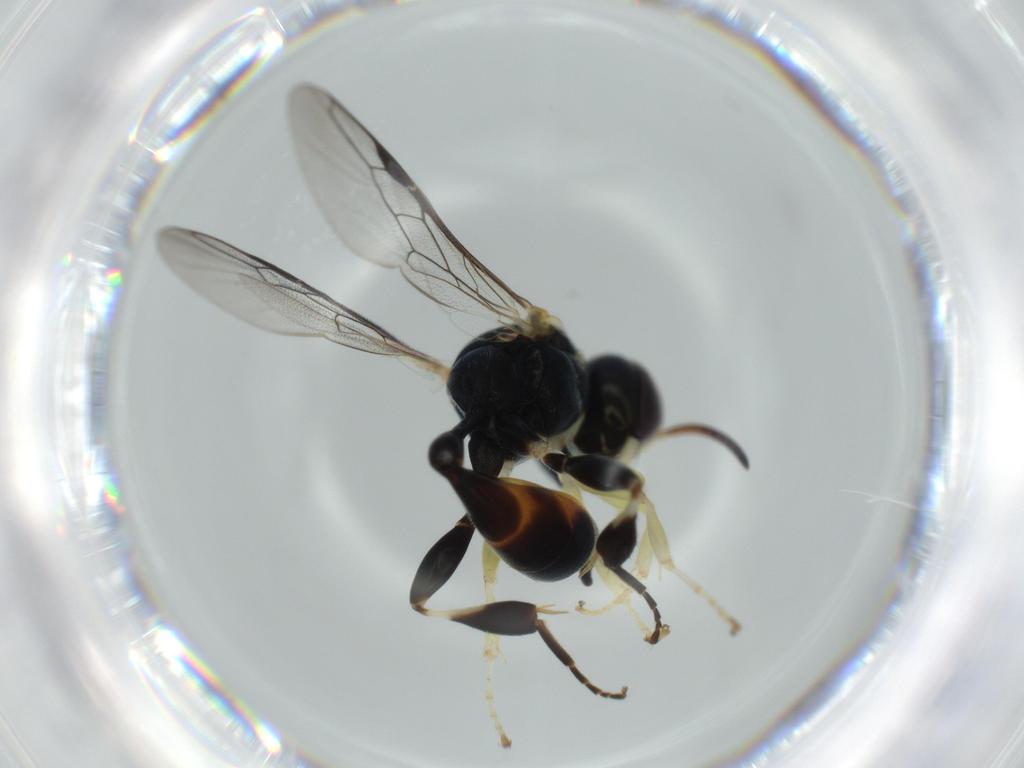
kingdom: Animalia
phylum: Arthropoda
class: Insecta
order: Hymenoptera
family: Crabronidae
